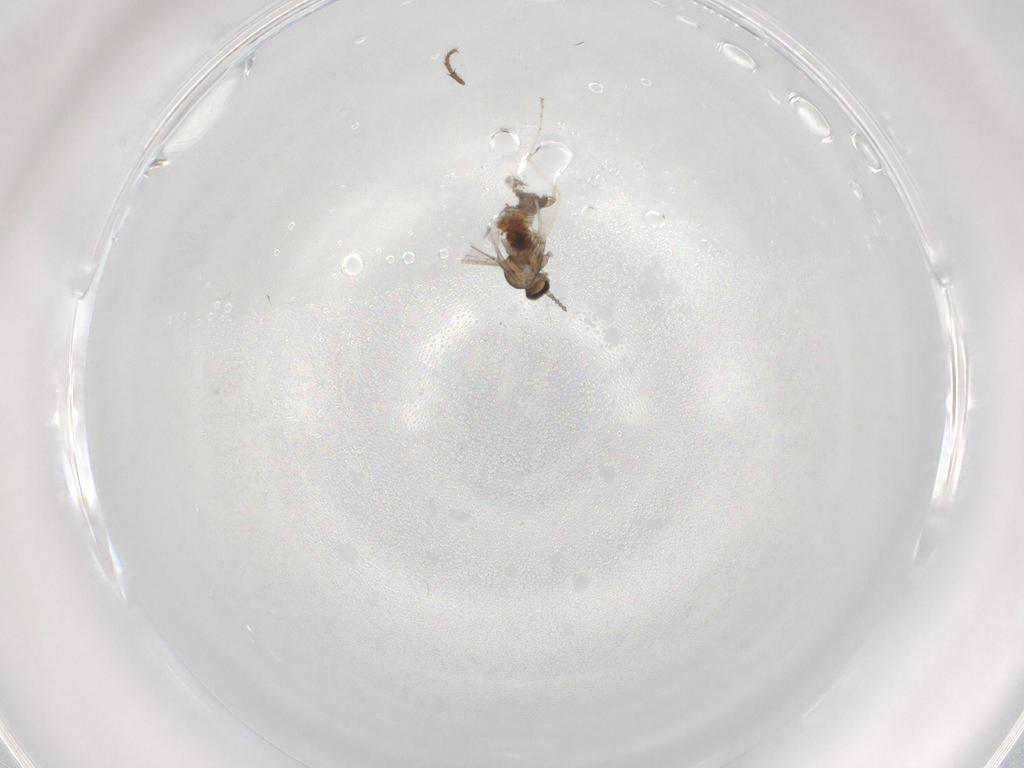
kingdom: Animalia
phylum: Arthropoda
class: Insecta
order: Diptera
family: Cecidomyiidae
